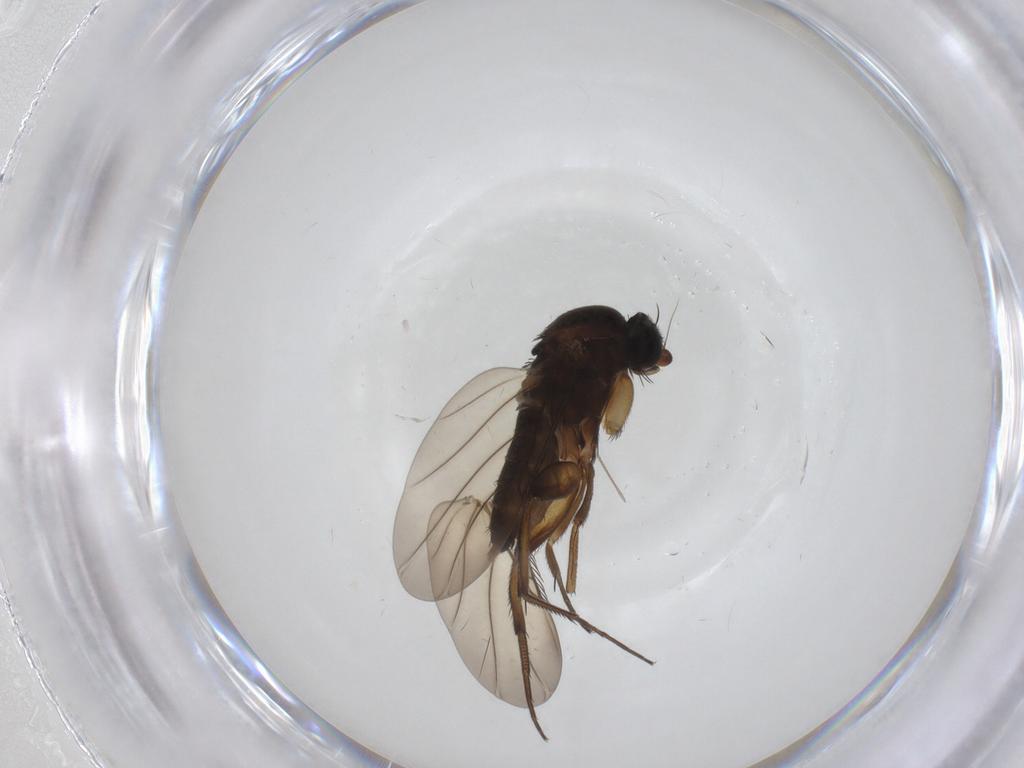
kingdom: Animalia
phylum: Arthropoda
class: Insecta
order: Diptera
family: Phoridae
